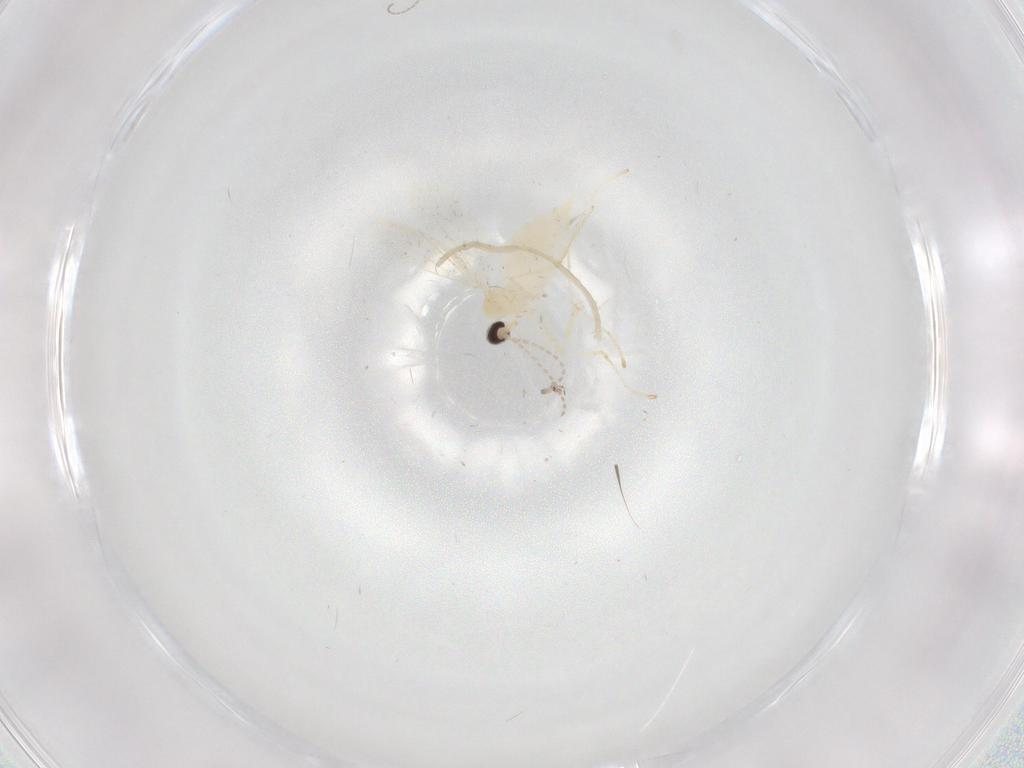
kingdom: Animalia
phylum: Arthropoda
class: Insecta
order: Diptera
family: Cecidomyiidae
